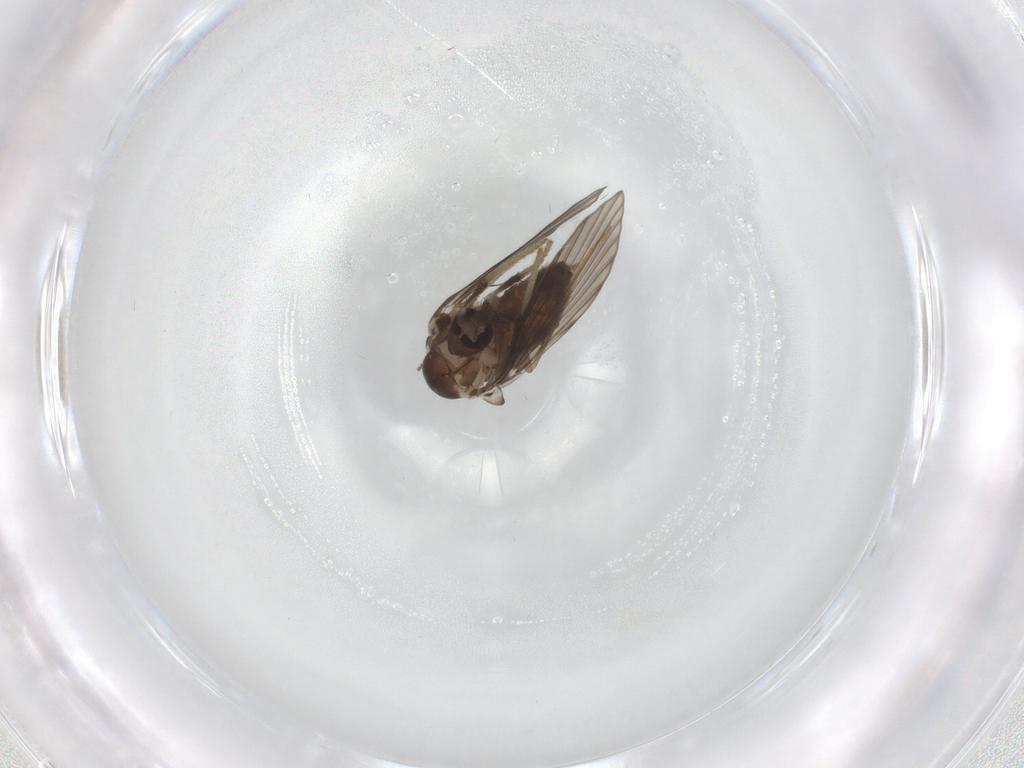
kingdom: Animalia
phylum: Arthropoda
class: Insecta
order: Diptera
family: Psychodidae
